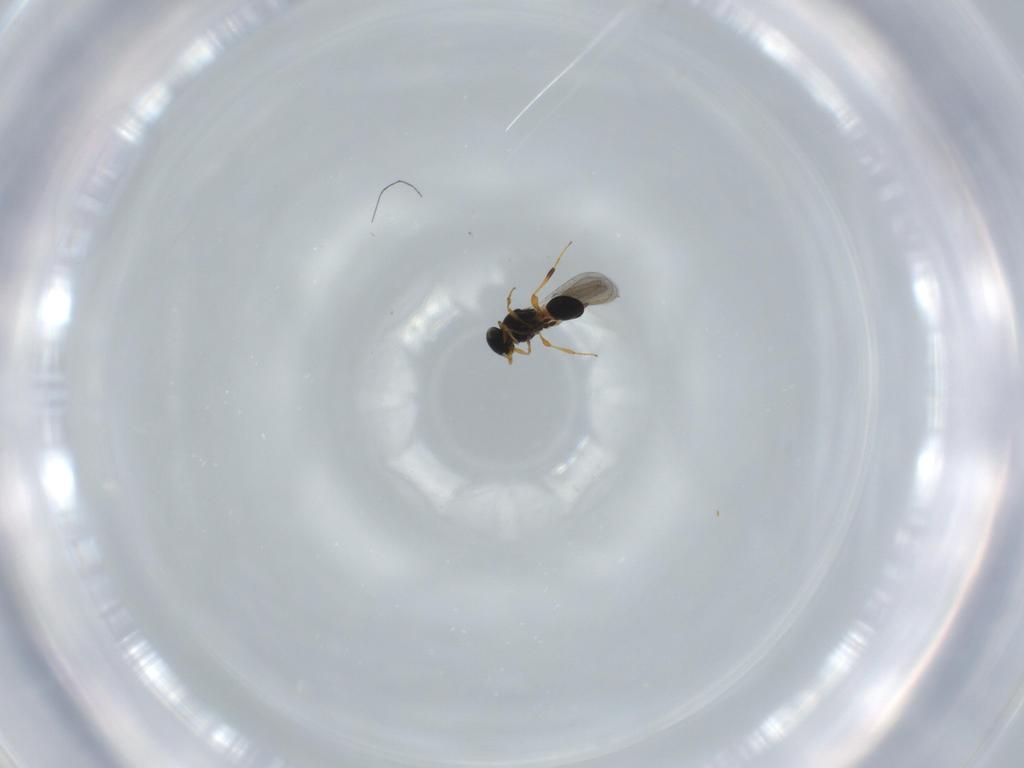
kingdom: Animalia
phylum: Arthropoda
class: Insecta
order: Hymenoptera
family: Platygastridae
